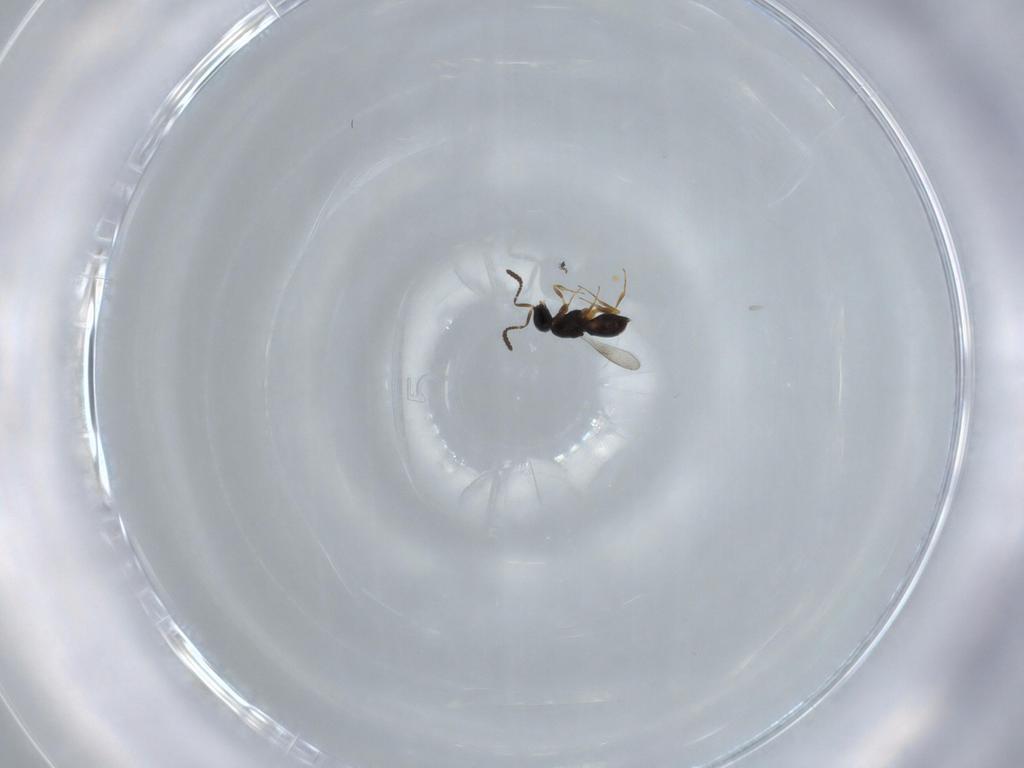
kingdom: Animalia
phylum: Arthropoda
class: Insecta
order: Hymenoptera
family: Scelionidae
